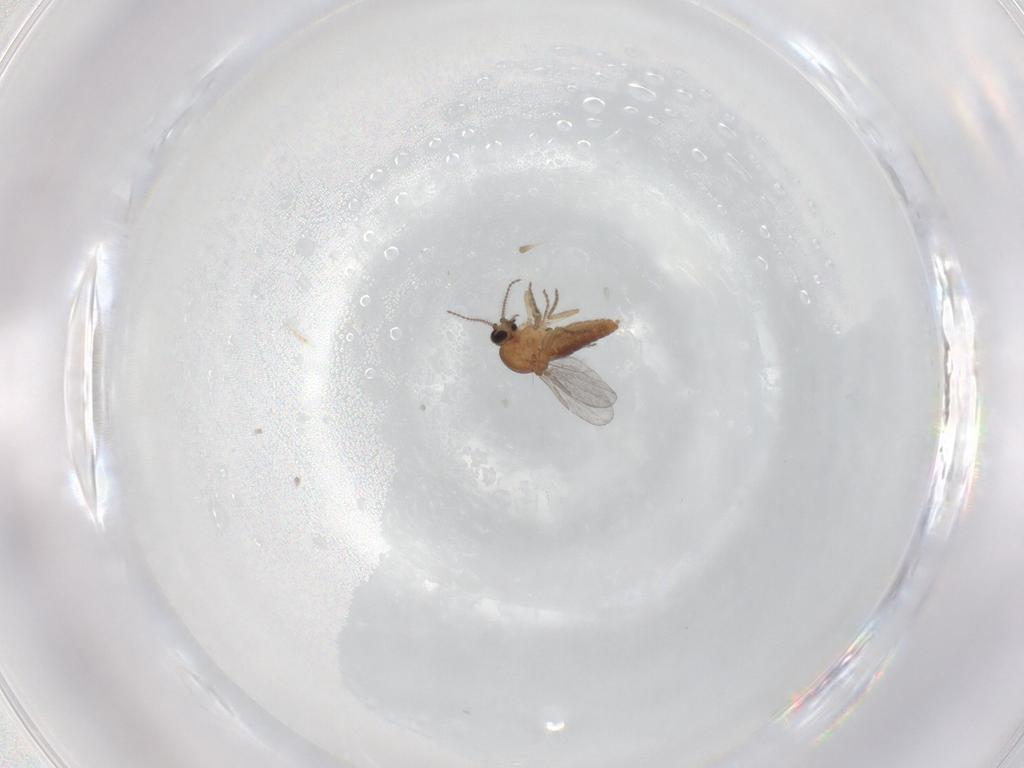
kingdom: Animalia
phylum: Arthropoda
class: Insecta
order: Diptera
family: Ceratopogonidae
